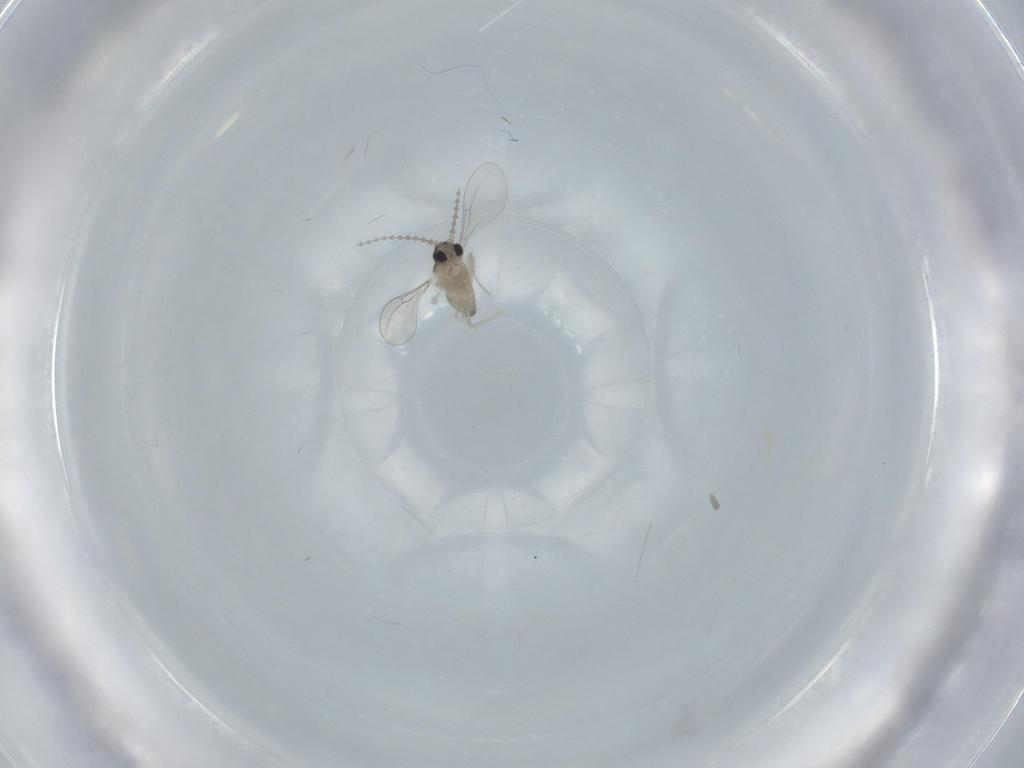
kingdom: Animalia
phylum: Arthropoda
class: Insecta
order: Diptera
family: Cecidomyiidae
